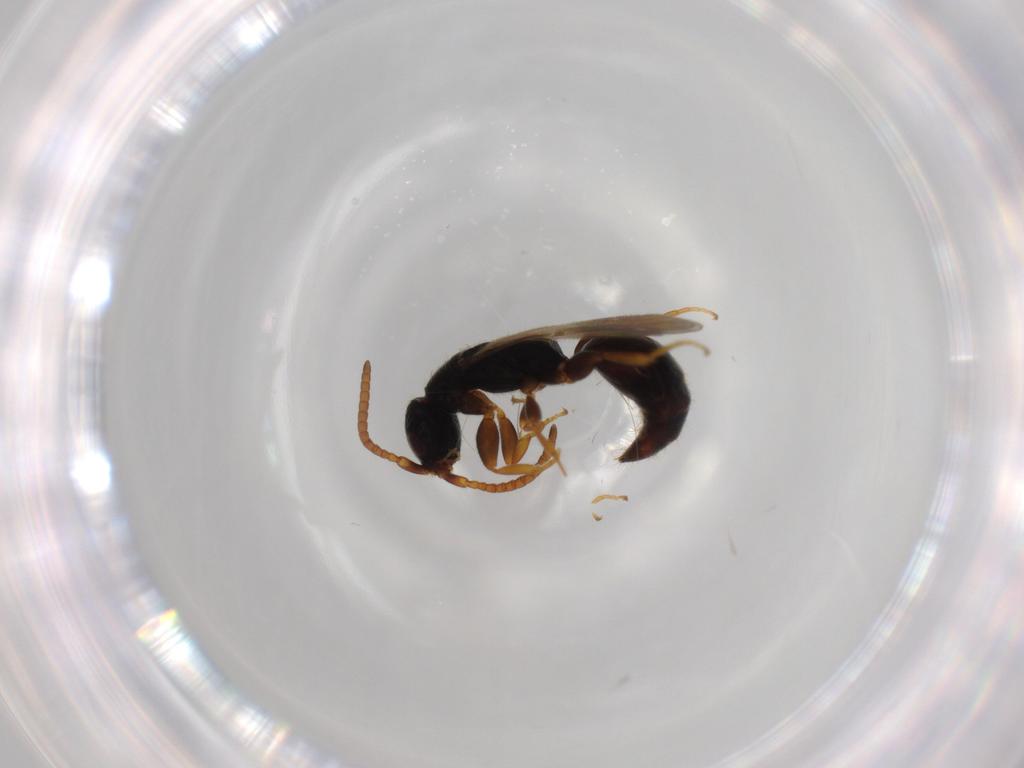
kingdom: Animalia
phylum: Arthropoda
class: Insecta
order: Hymenoptera
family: Bethylidae
